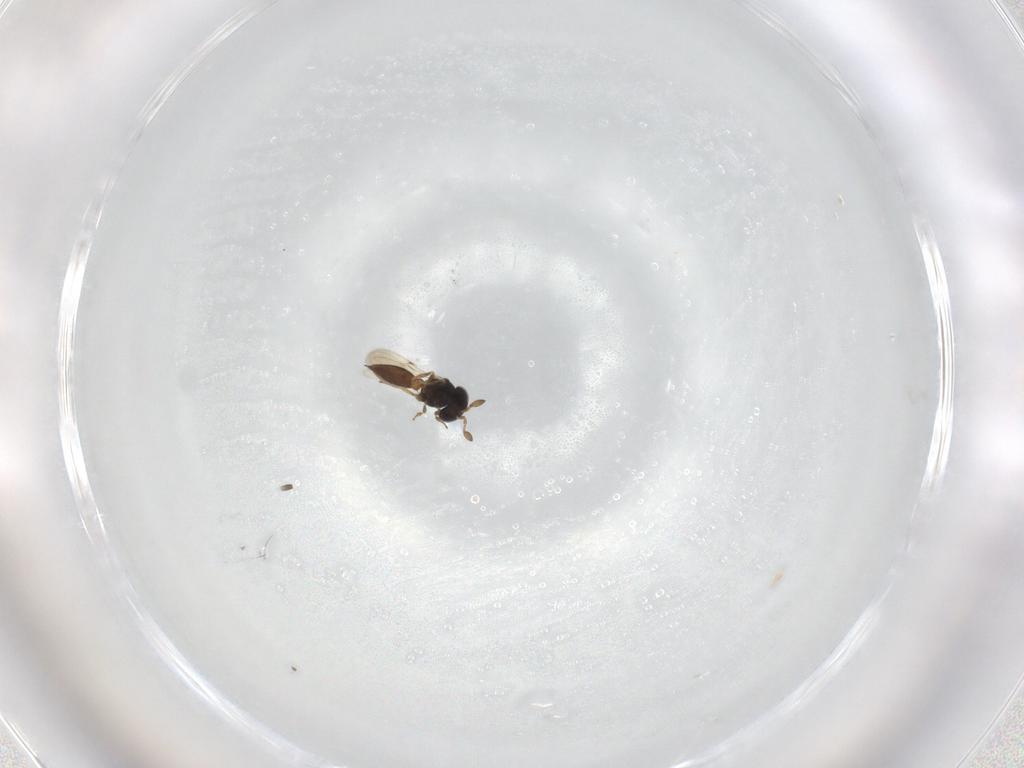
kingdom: Animalia
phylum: Arthropoda
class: Insecta
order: Hymenoptera
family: Scelionidae
